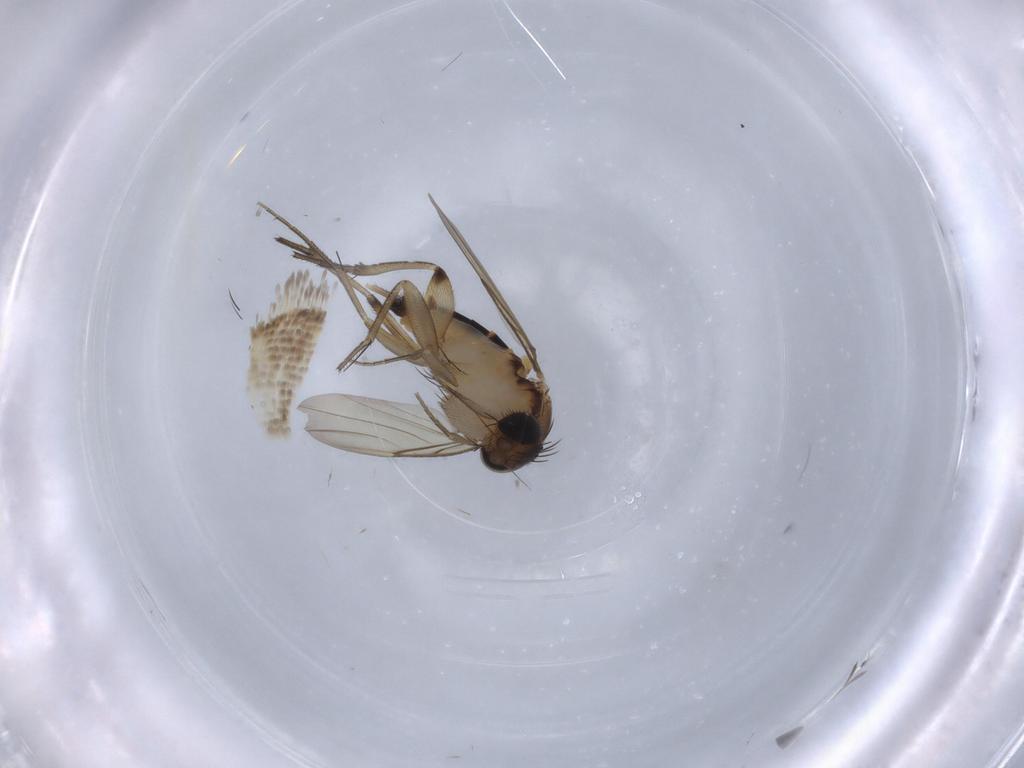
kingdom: Animalia
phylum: Arthropoda
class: Insecta
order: Diptera
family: Phoridae
